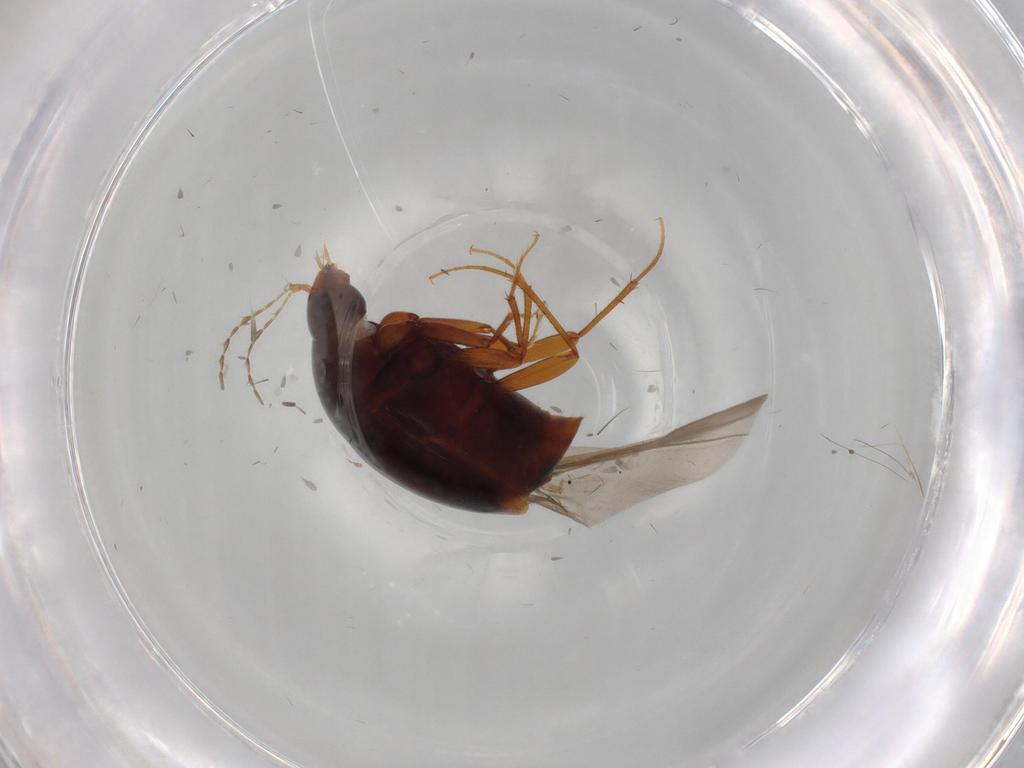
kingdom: Animalia
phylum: Arthropoda
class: Insecta
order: Coleoptera
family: Staphylinidae
